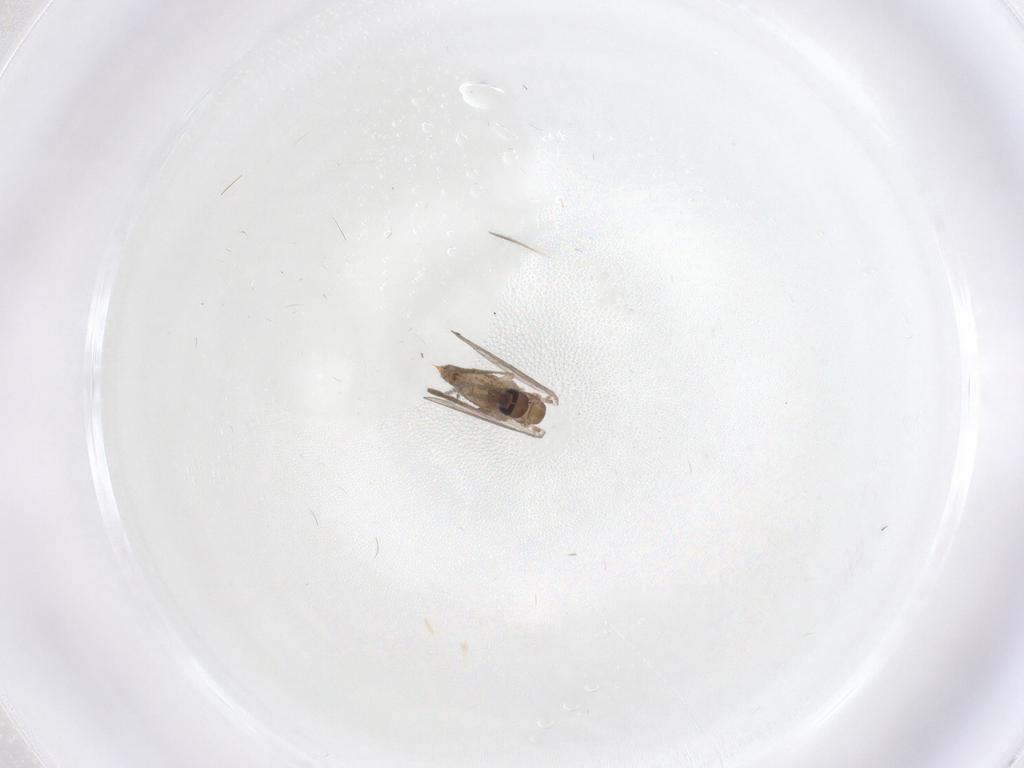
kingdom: Animalia
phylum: Arthropoda
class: Insecta
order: Diptera
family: Psychodidae
